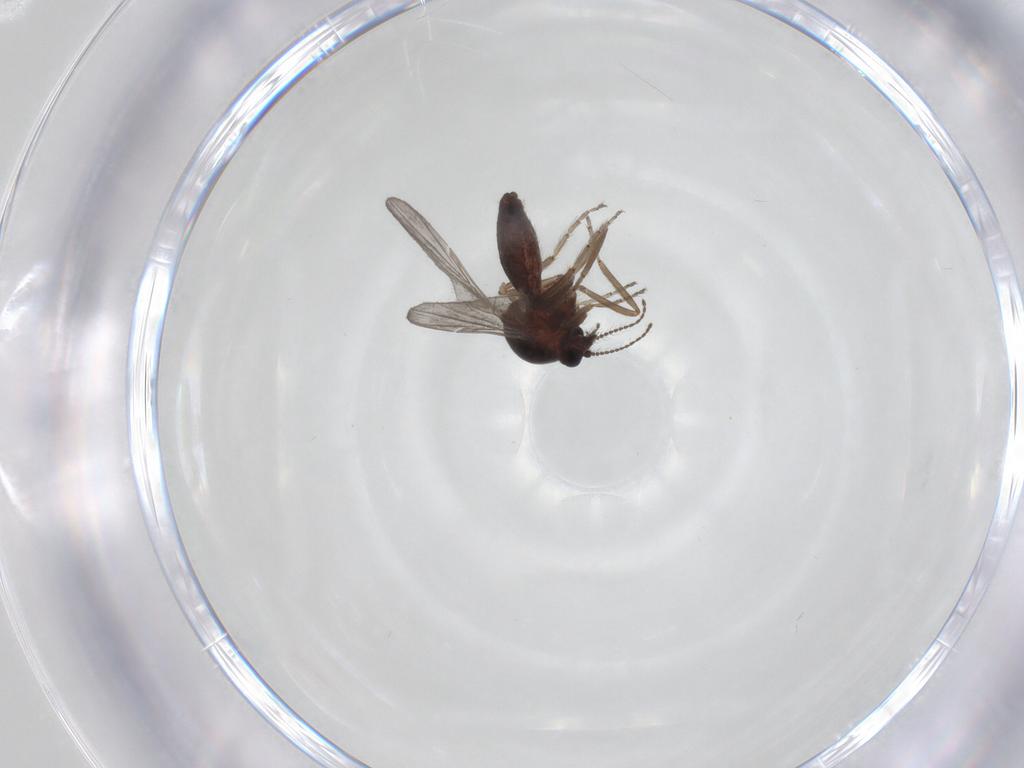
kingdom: Animalia
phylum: Arthropoda
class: Insecta
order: Diptera
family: Ceratopogonidae
